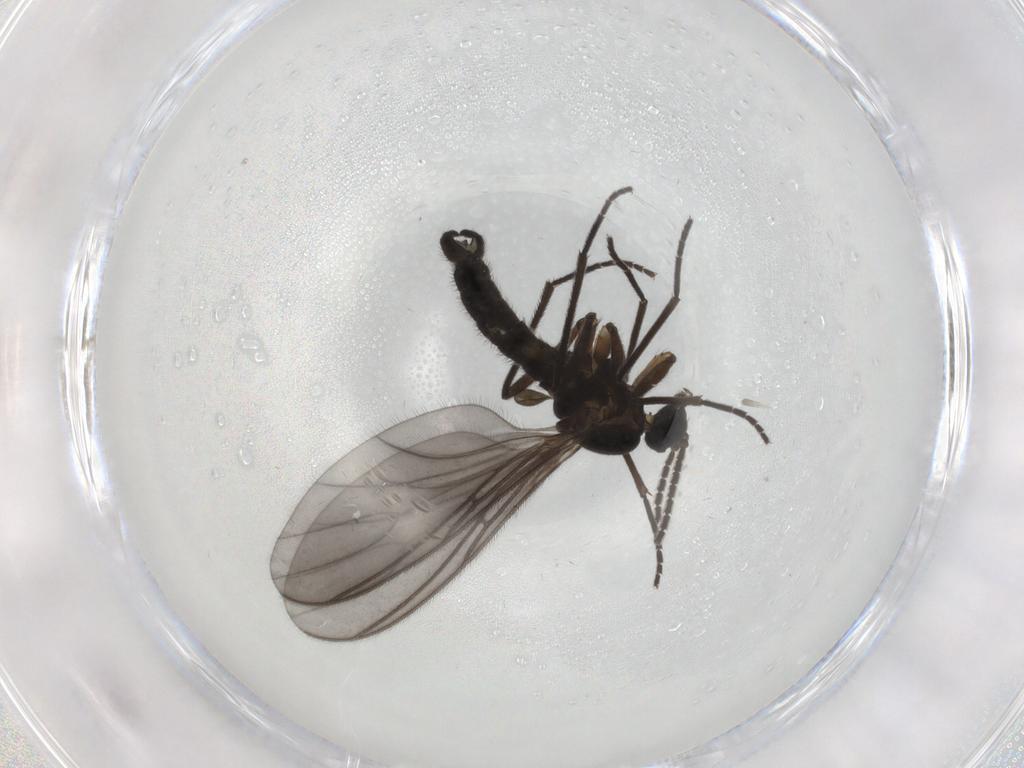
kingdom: Animalia
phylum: Arthropoda
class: Insecta
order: Diptera
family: Sciaridae
